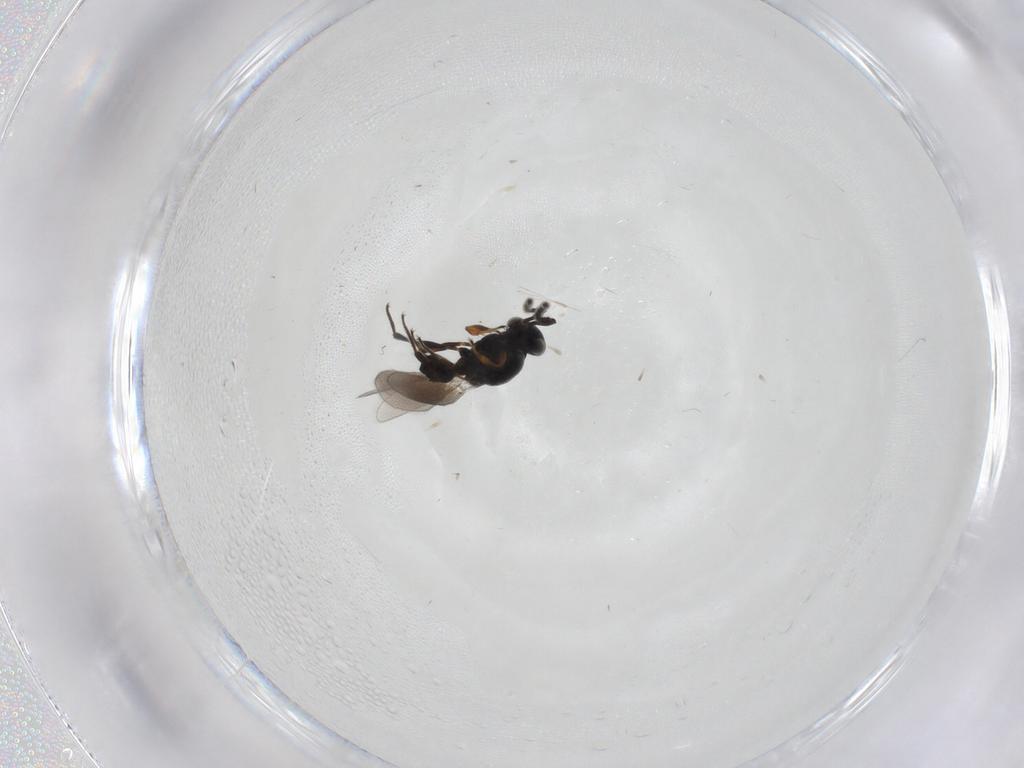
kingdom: Animalia
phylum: Arthropoda
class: Insecta
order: Hymenoptera
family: Platygastridae
